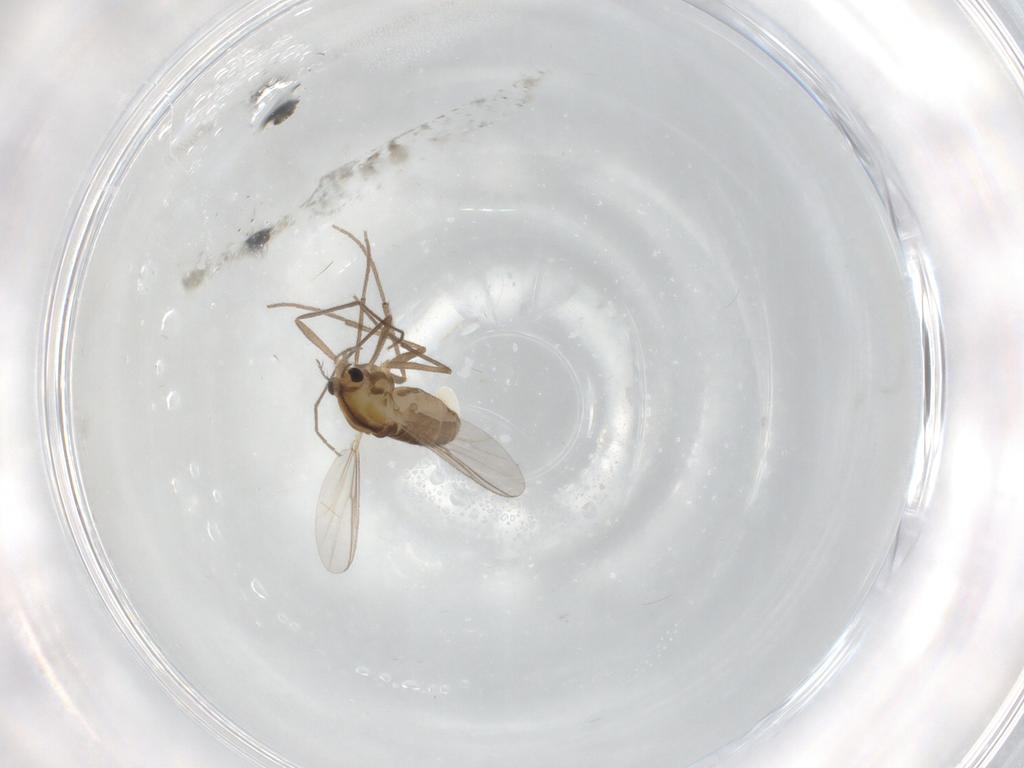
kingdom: Animalia
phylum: Arthropoda
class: Insecta
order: Diptera
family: Chironomidae
